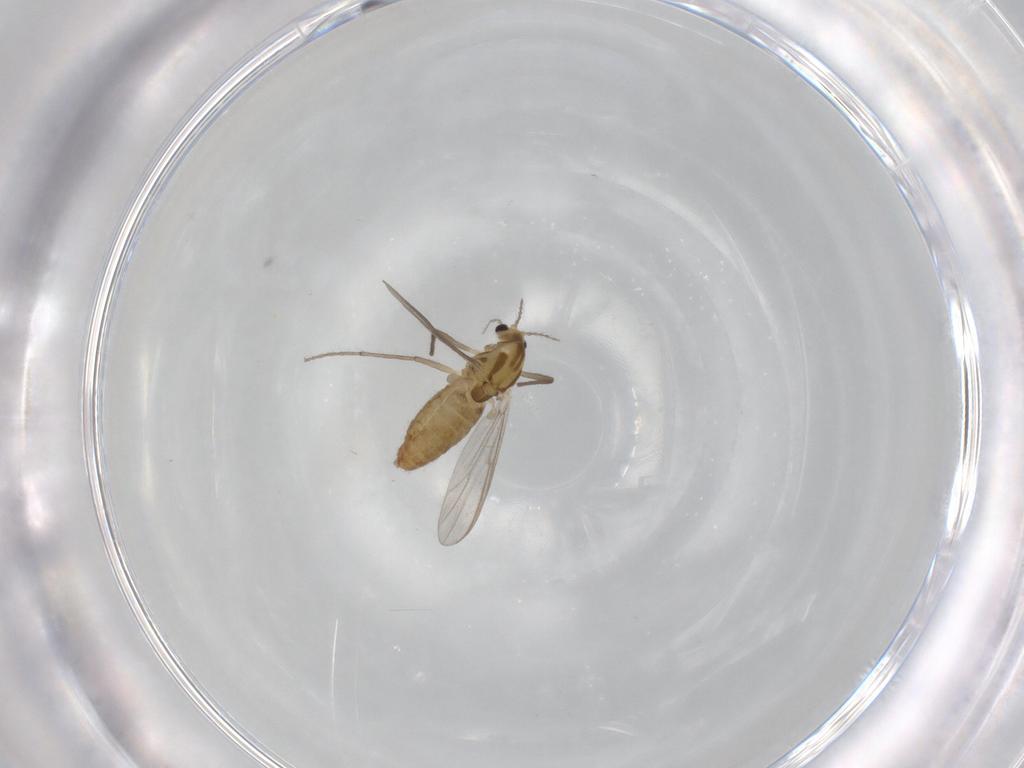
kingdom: Animalia
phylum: Arthropoda
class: Insecta
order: Diptera
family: Chironomidae
